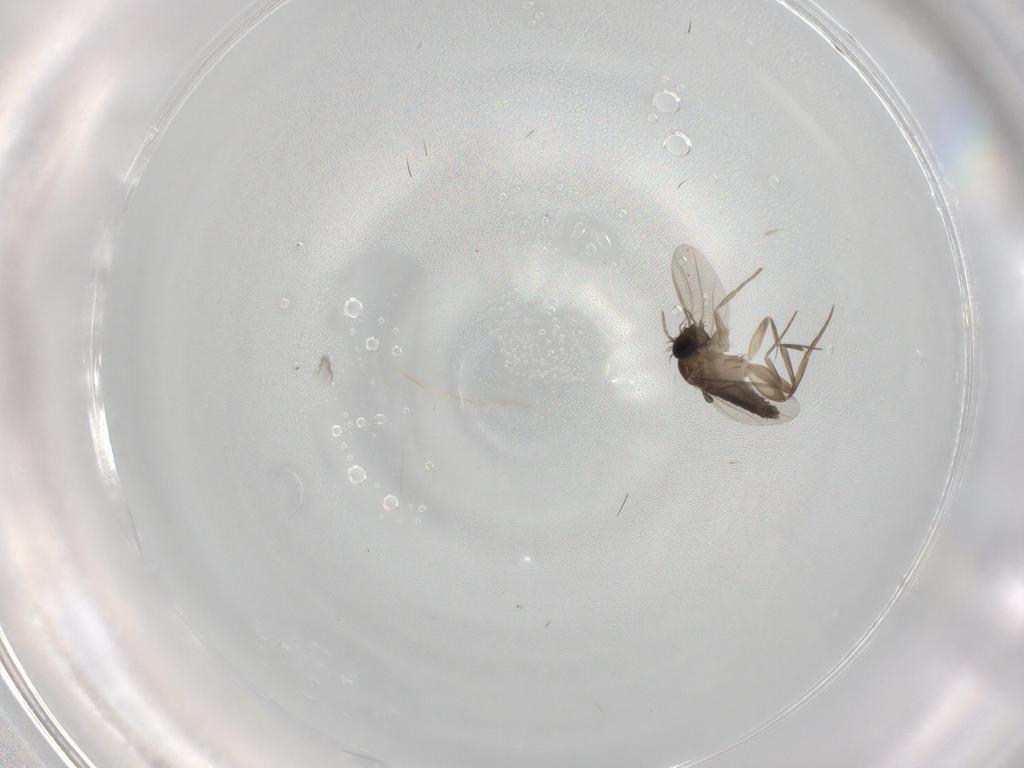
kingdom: Animalia
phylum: Arthropoda
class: Insecta
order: Diptera
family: Phoridae
